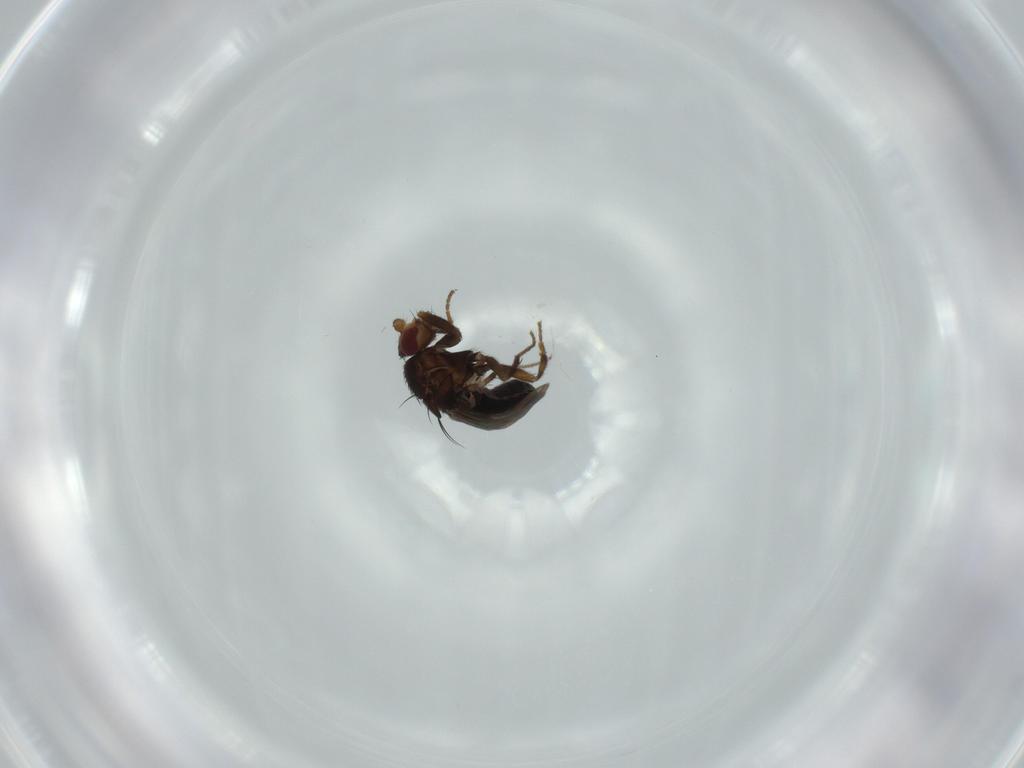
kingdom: Animalia
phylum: Arthropoda
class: Insecta
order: Diptera
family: Sphaeroceridae
